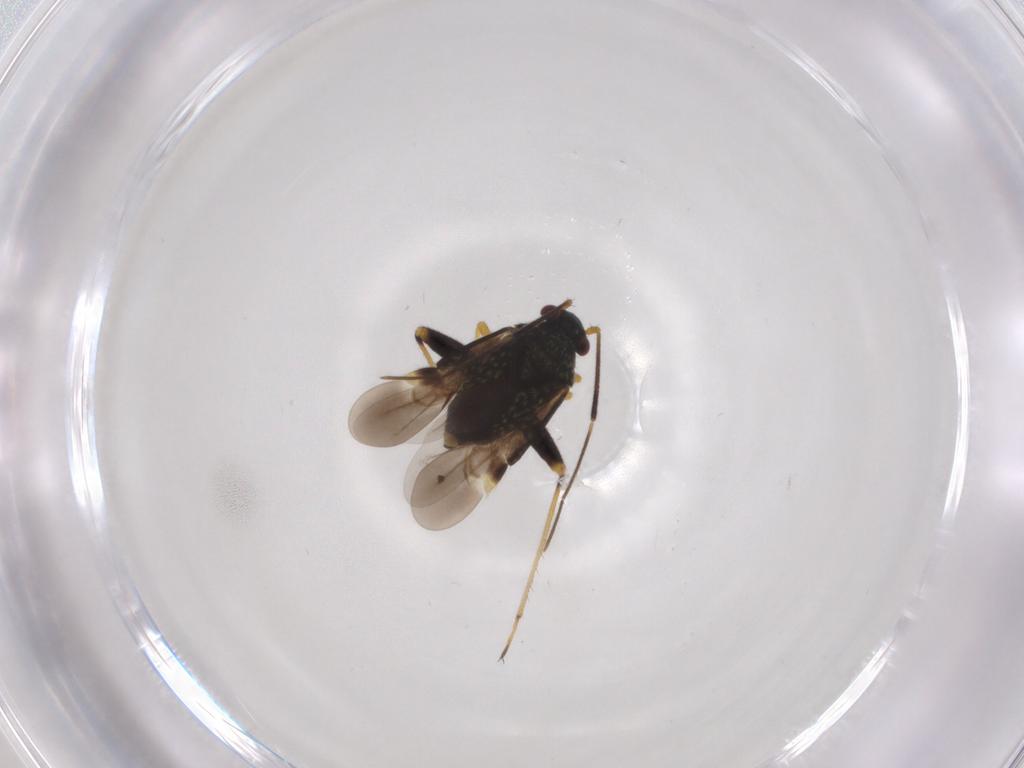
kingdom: Animalia
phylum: Arthropoda
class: Insecta
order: Hemiptera
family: Miridae
